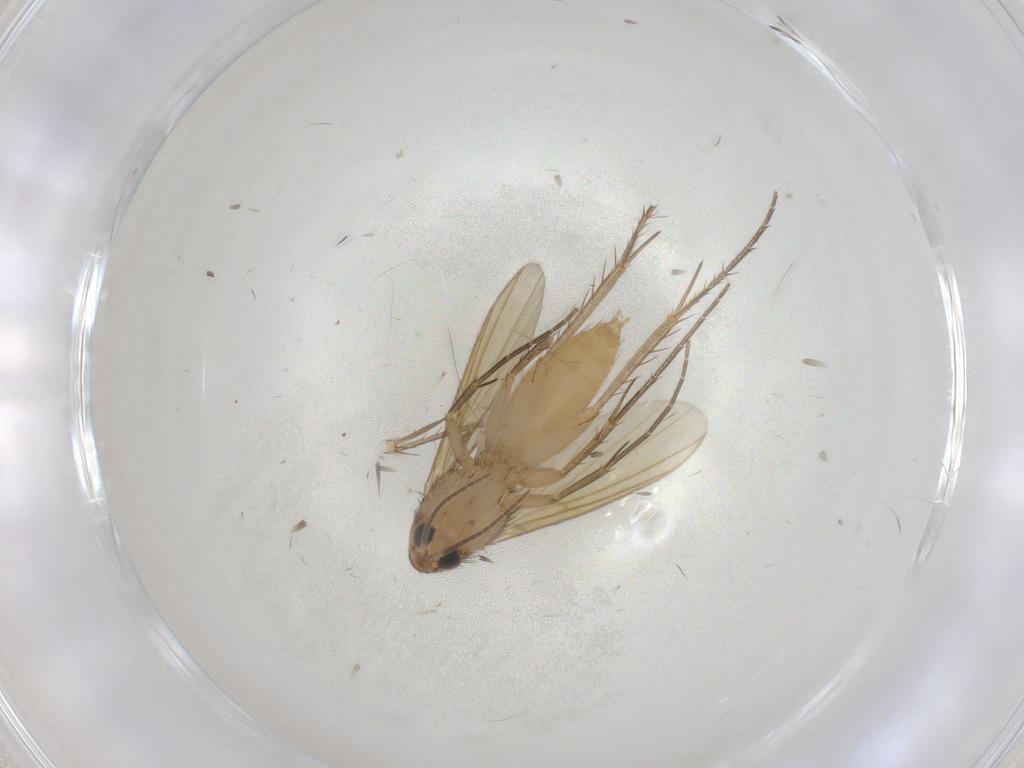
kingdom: Animalia
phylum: Arthropoda
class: Insecta
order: Diptera
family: Mycetophilidae
